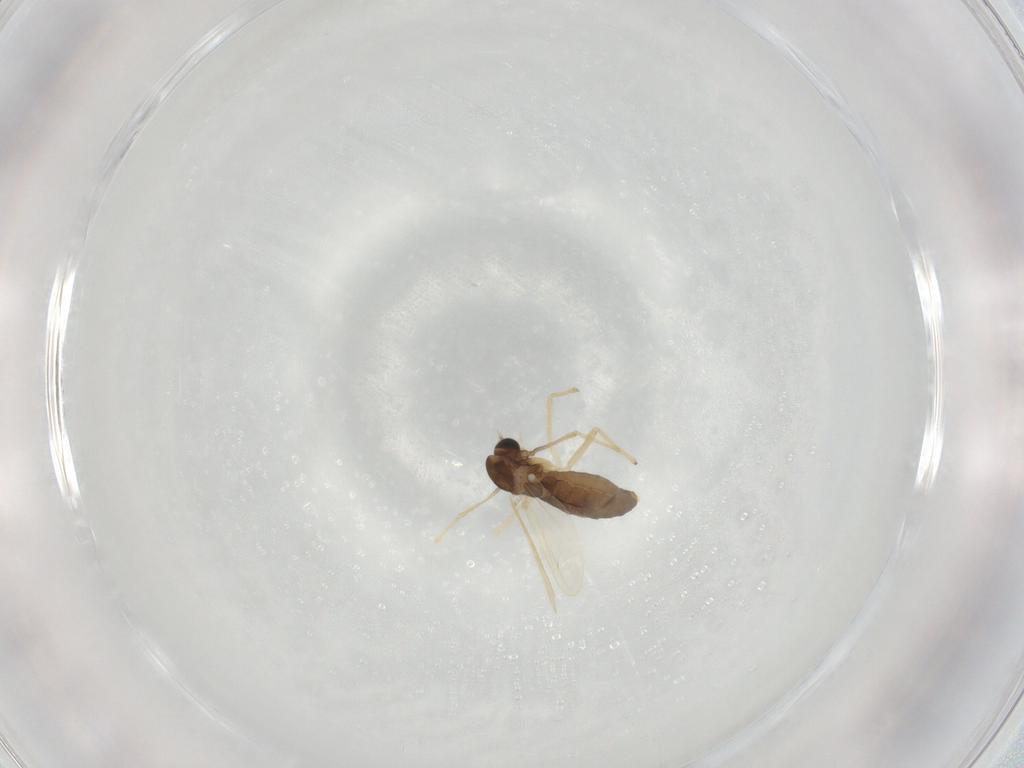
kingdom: Animalia
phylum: Arthropoda
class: Insecta
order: Diptera
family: Chironomidae
